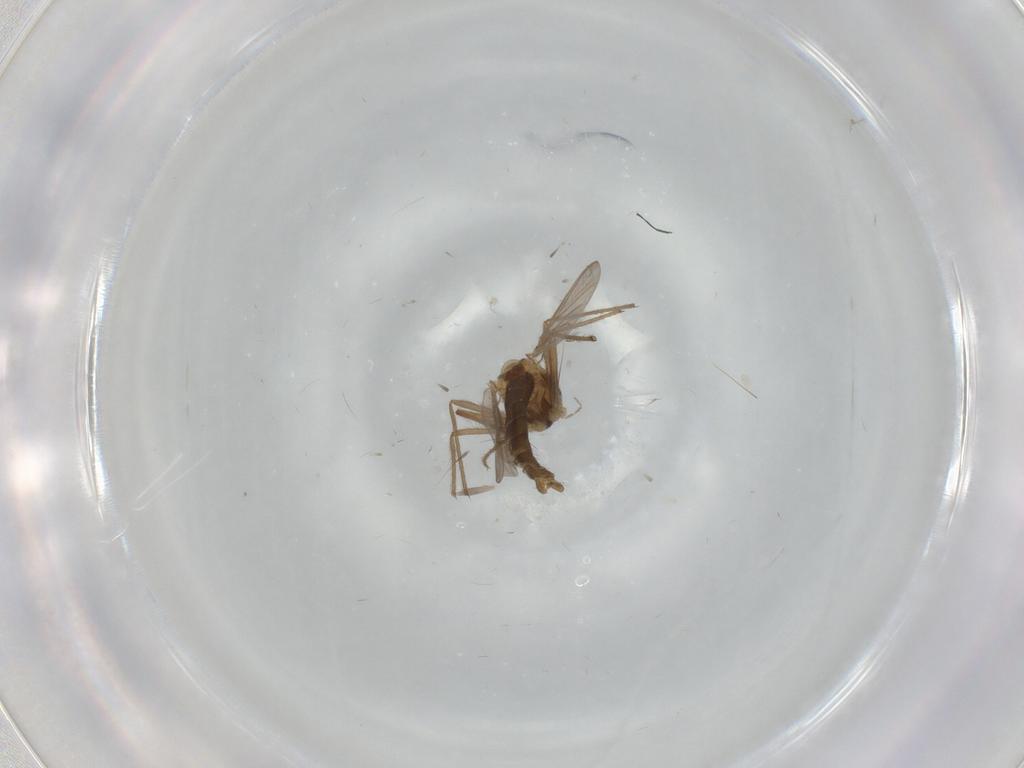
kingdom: Animalia
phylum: Arthropoda
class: Insecta
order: Diptera
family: Chironomidae
